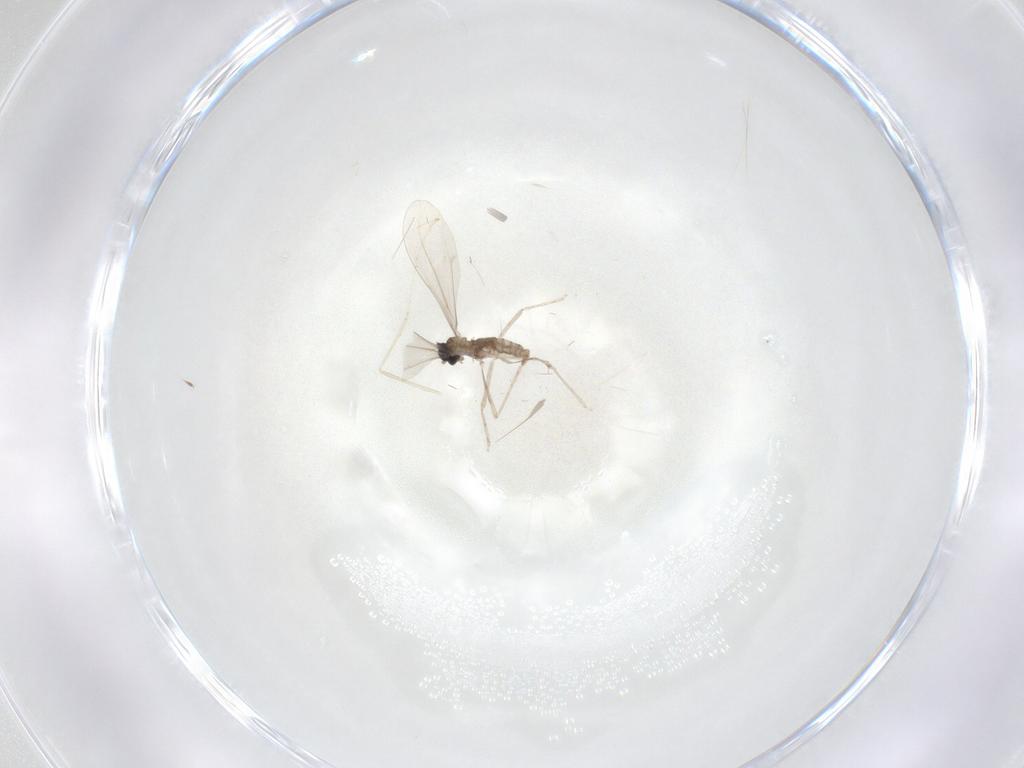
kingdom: Animalia
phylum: Arthropoda
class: Insecta
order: Diptera
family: Cecidomyiidae
